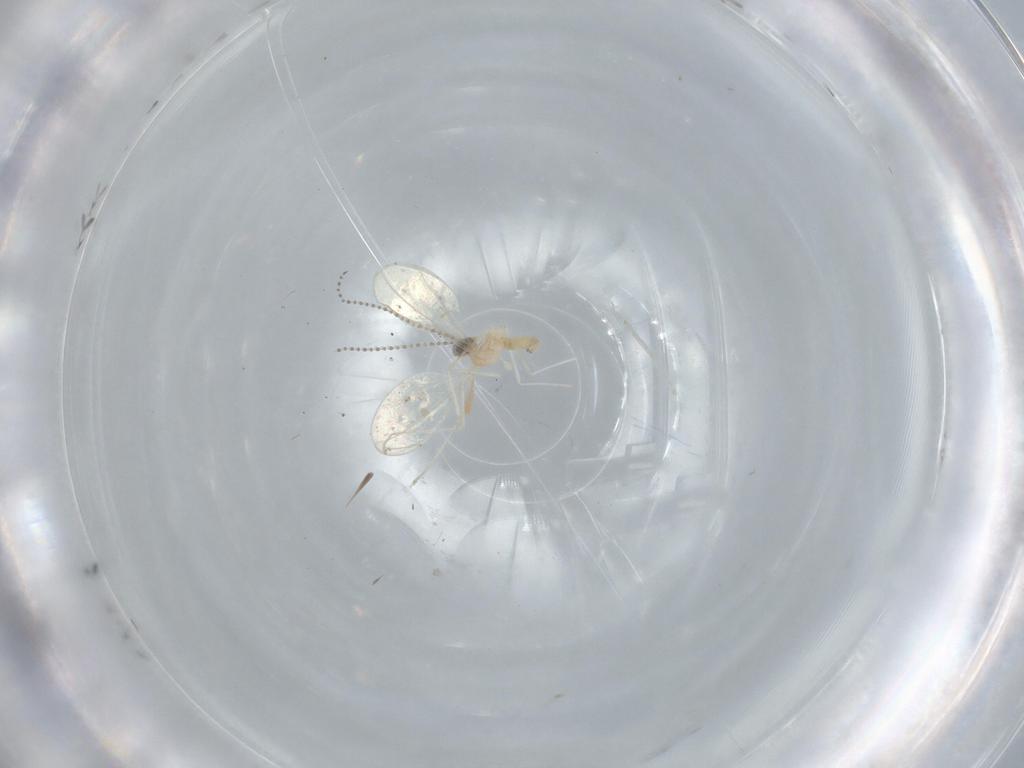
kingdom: Animalia
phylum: Arthropoda
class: Insecta
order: Diptera
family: Cecidomyiidae
